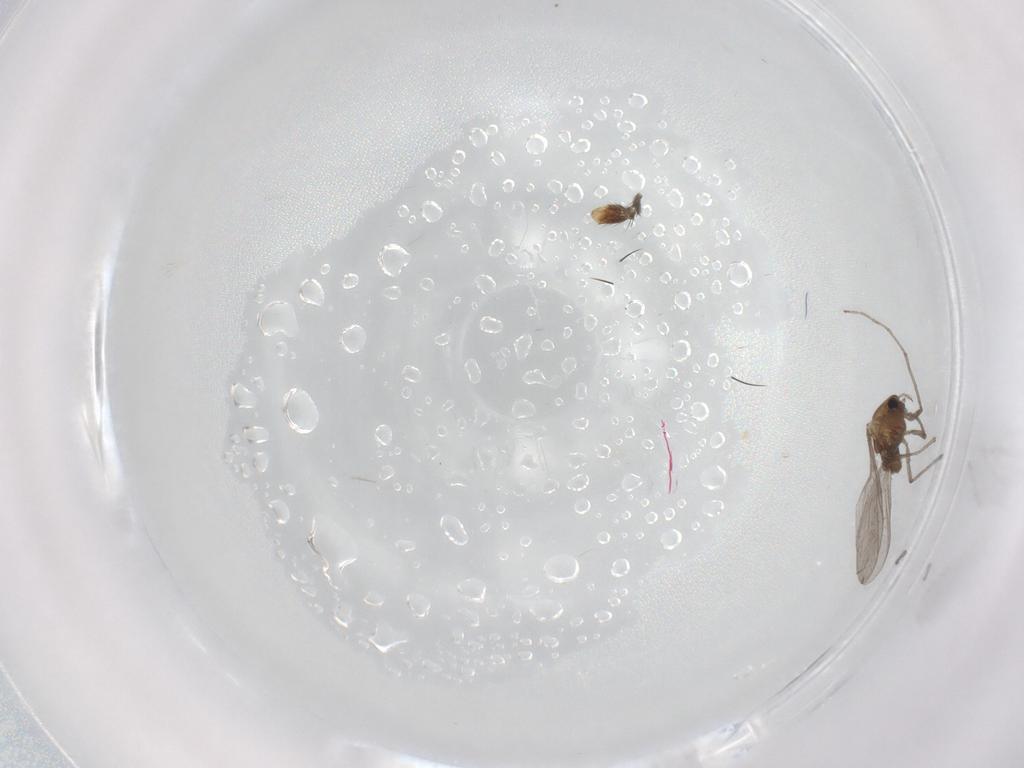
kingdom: Animalia
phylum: Arthropoda
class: Insecta
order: Diptera
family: Chironomidae
